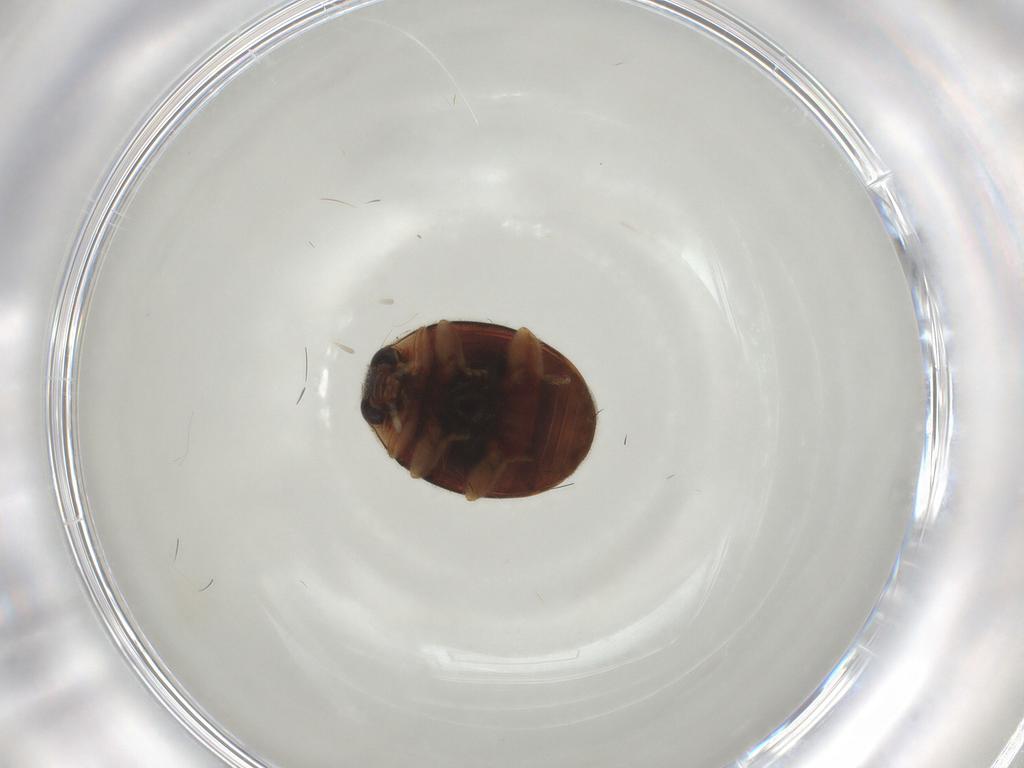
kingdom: Animalia
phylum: Arthropoda
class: Insecta
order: Coleoptera
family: Dermestidae
